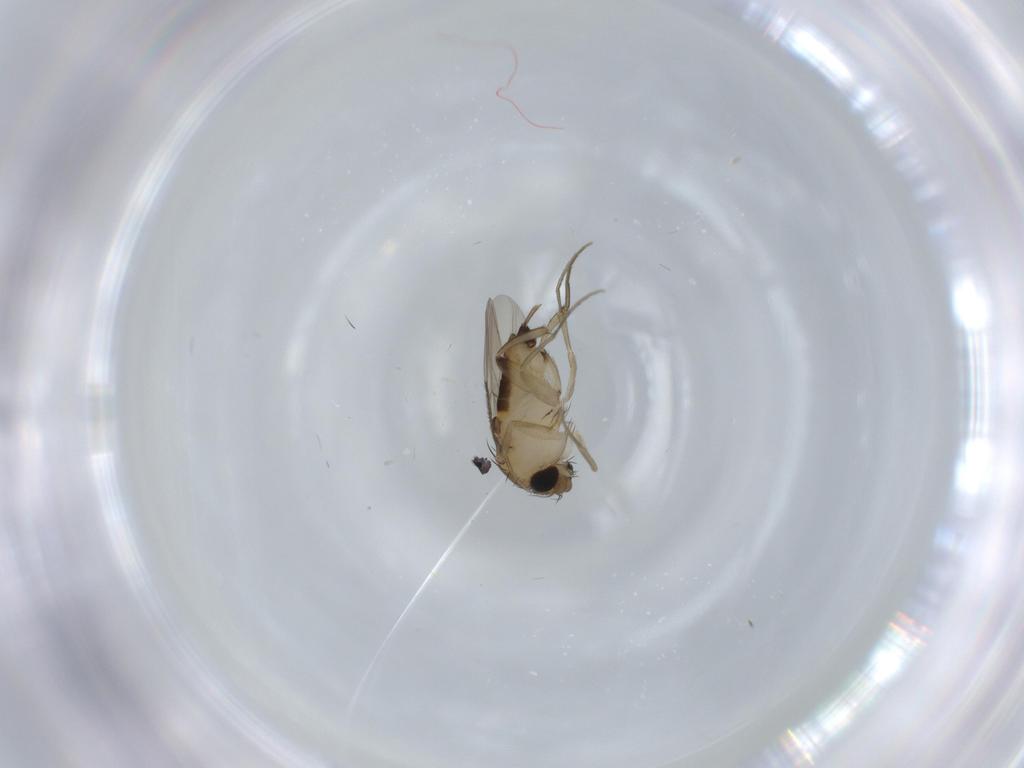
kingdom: Animalia
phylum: Arthropoda
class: Insecta
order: Diptera
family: Phoridae
